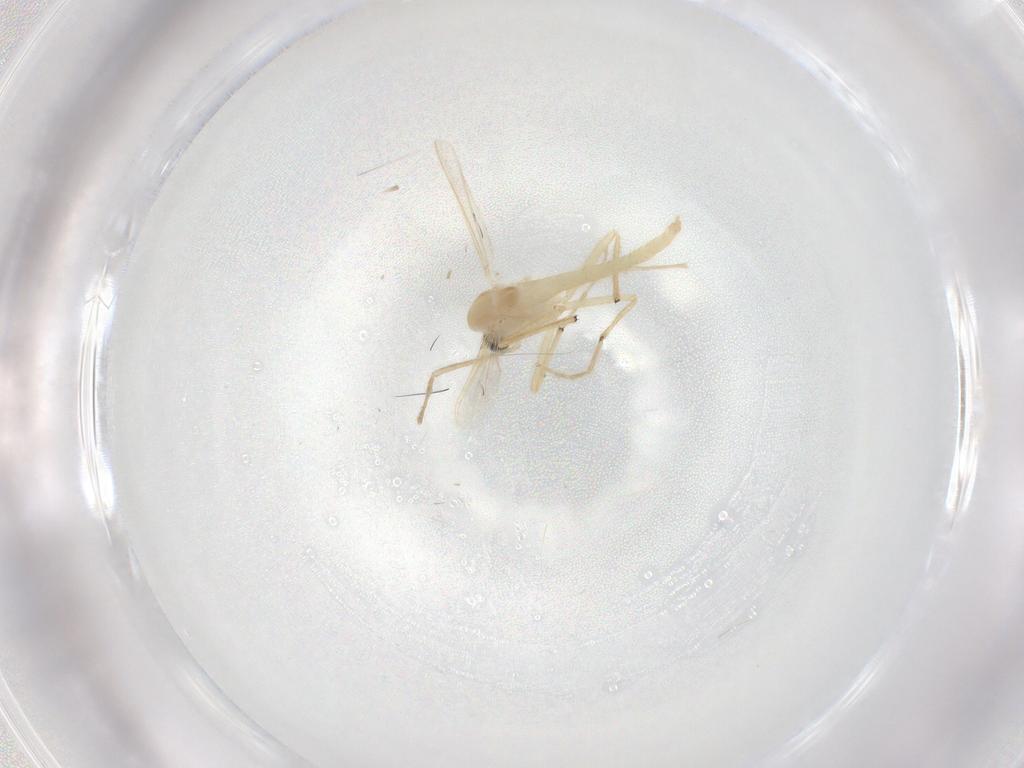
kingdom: Animalia
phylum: Arthropoda
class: Insecta
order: Diptera
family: Chironomidae
